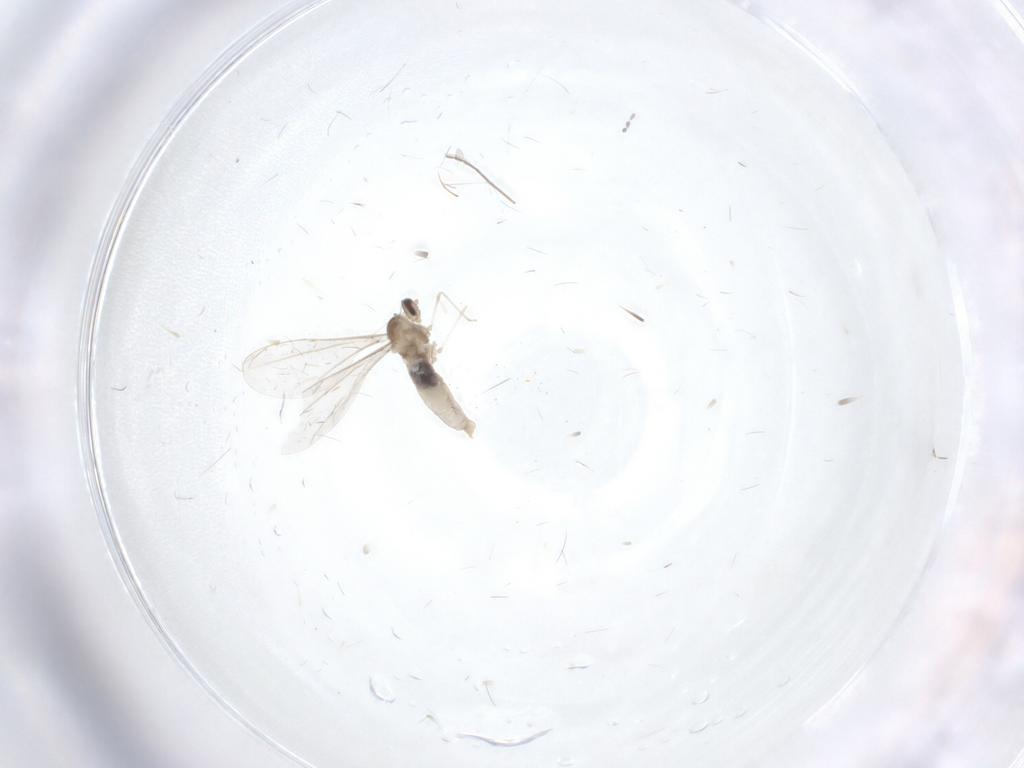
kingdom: Animalia
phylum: Arthropoda
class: Insecta
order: Diptera
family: Cecidomyiidae
